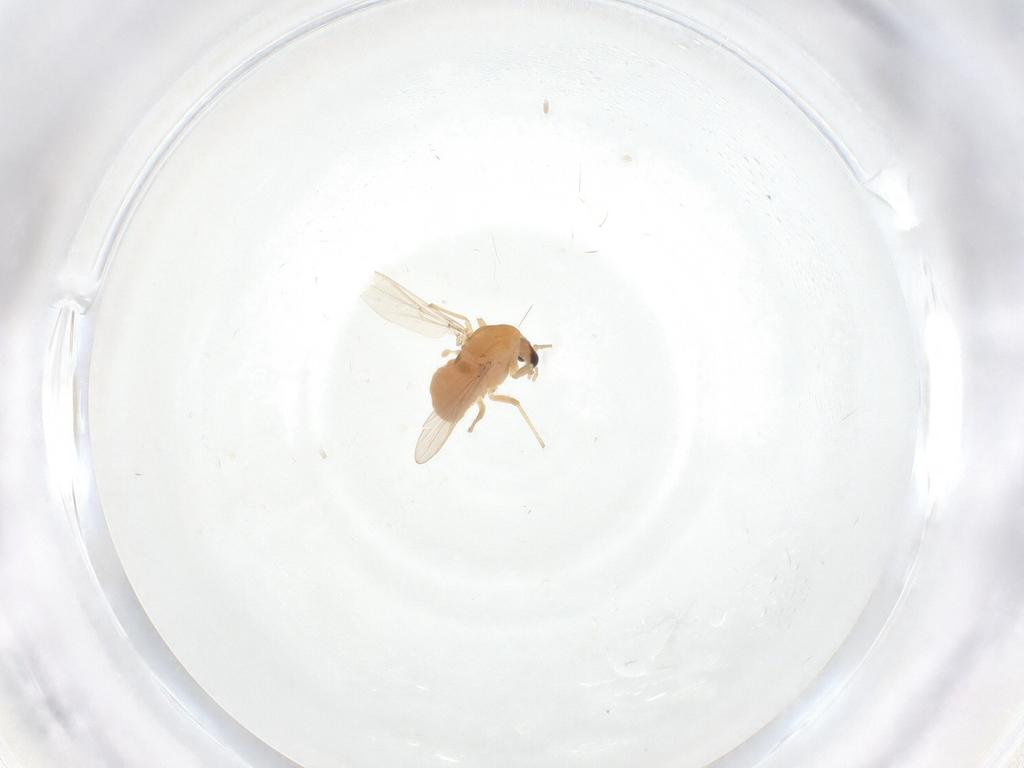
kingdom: Animalia
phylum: Arthropoda
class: Insecta
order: Diptera
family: Chironomidae
